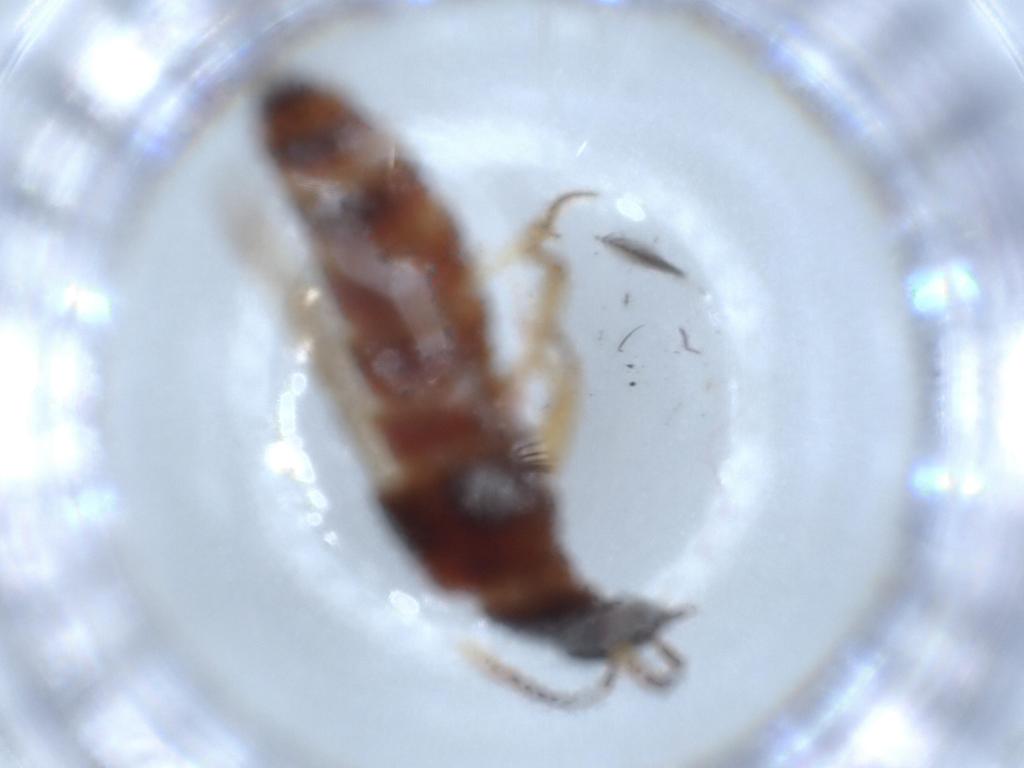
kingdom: Animalia
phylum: Arthropoda
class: Insecta
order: Coleoptera
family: Staphylinidae
